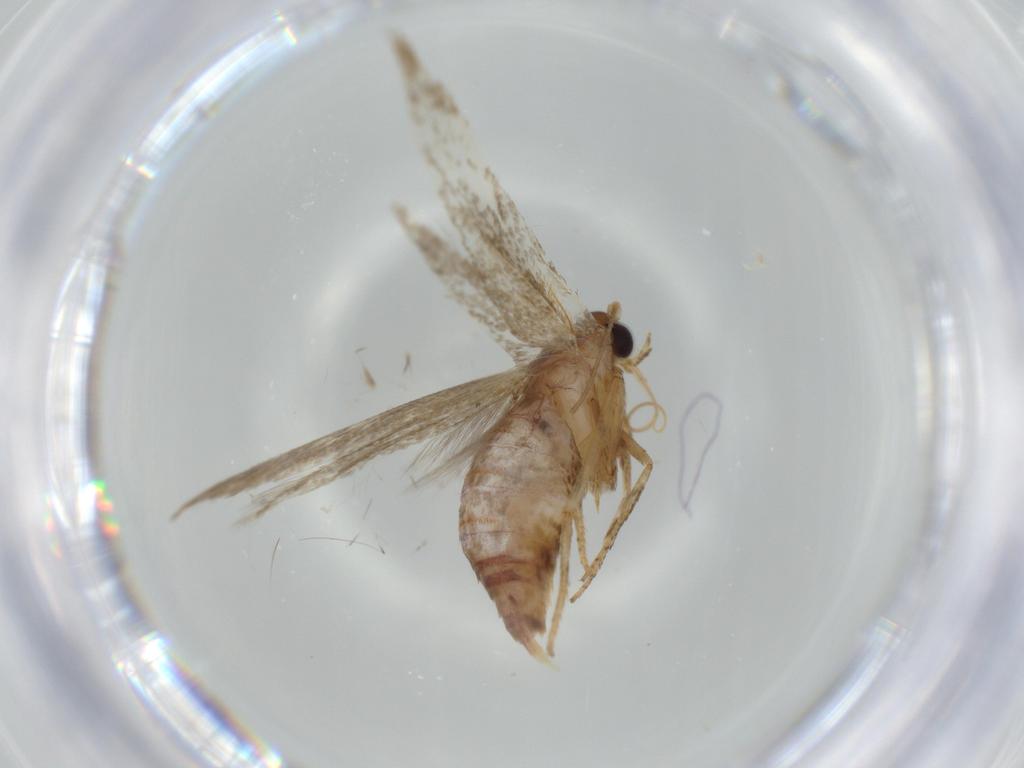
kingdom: Animalia
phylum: Arthropoda
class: Insecta
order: Lepidoptera
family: Coleophoridae
